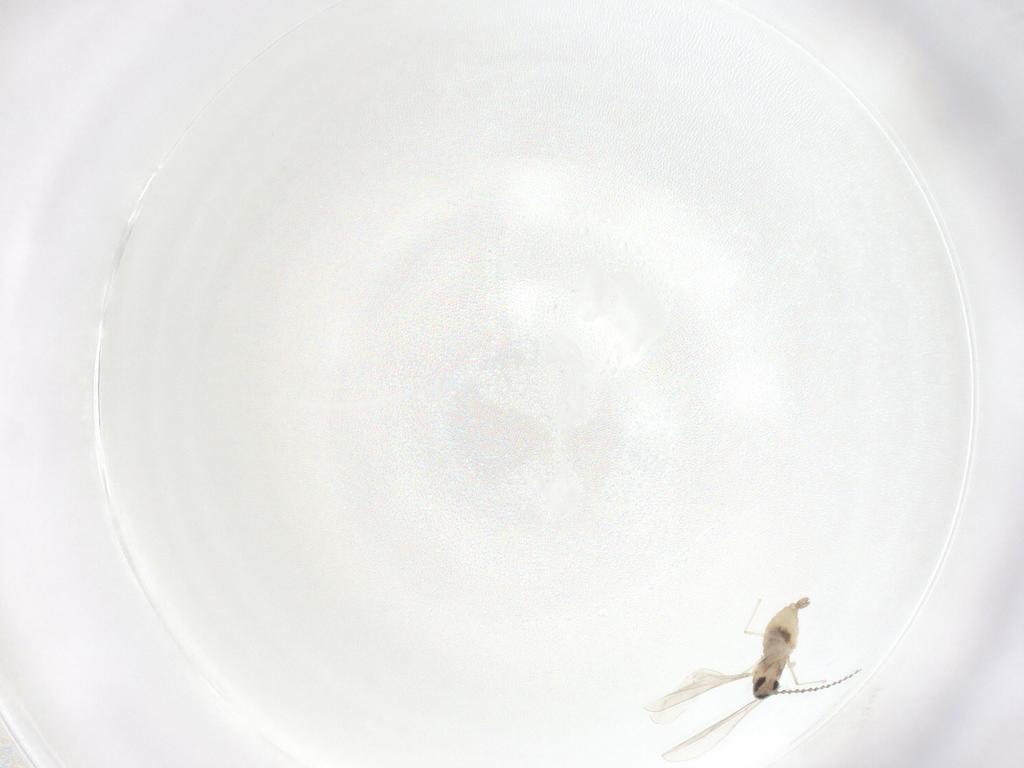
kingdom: Animalia
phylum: Arthropoda
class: Insecta
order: Diptera
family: Cecidomyiidae
